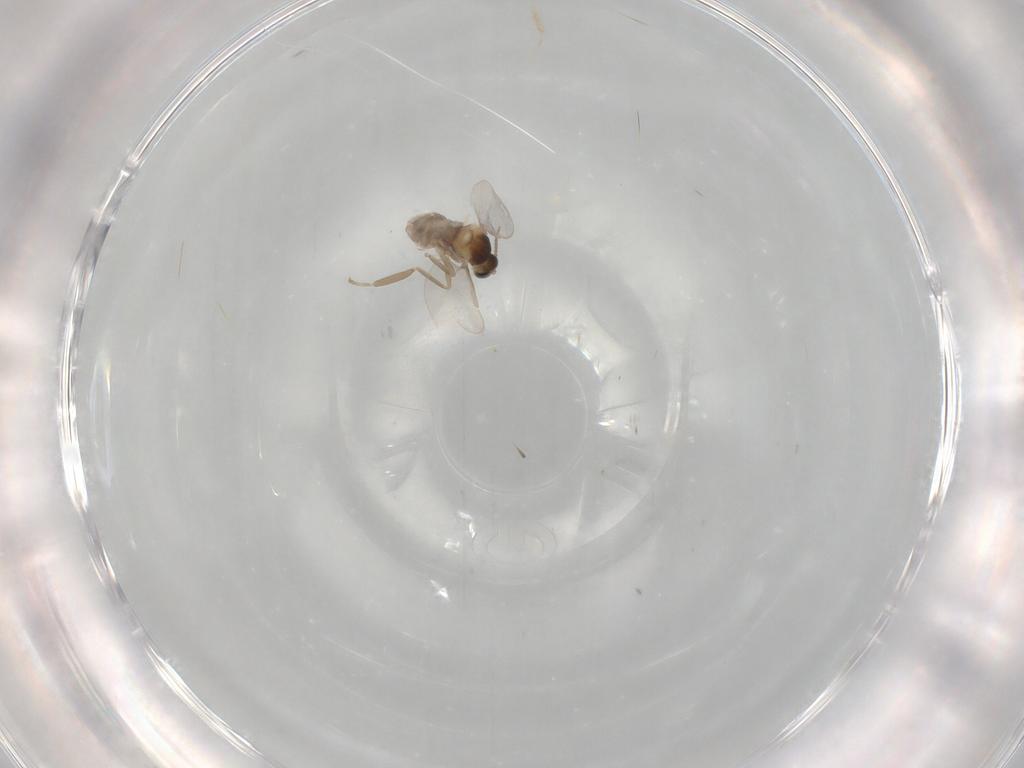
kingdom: Animalia
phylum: Arthropoda
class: Insecta
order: Diptera
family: Cecidomyiidae
